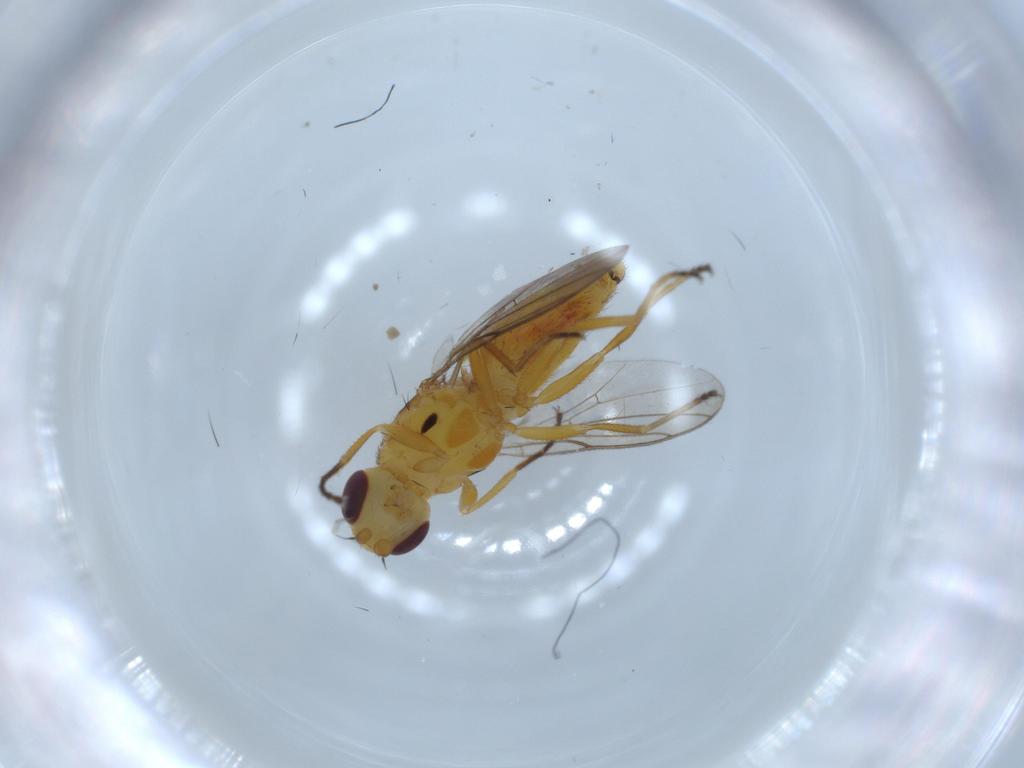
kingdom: Animalia
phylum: Arthropoda
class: Insecta
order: Diptera
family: Chloropidae
